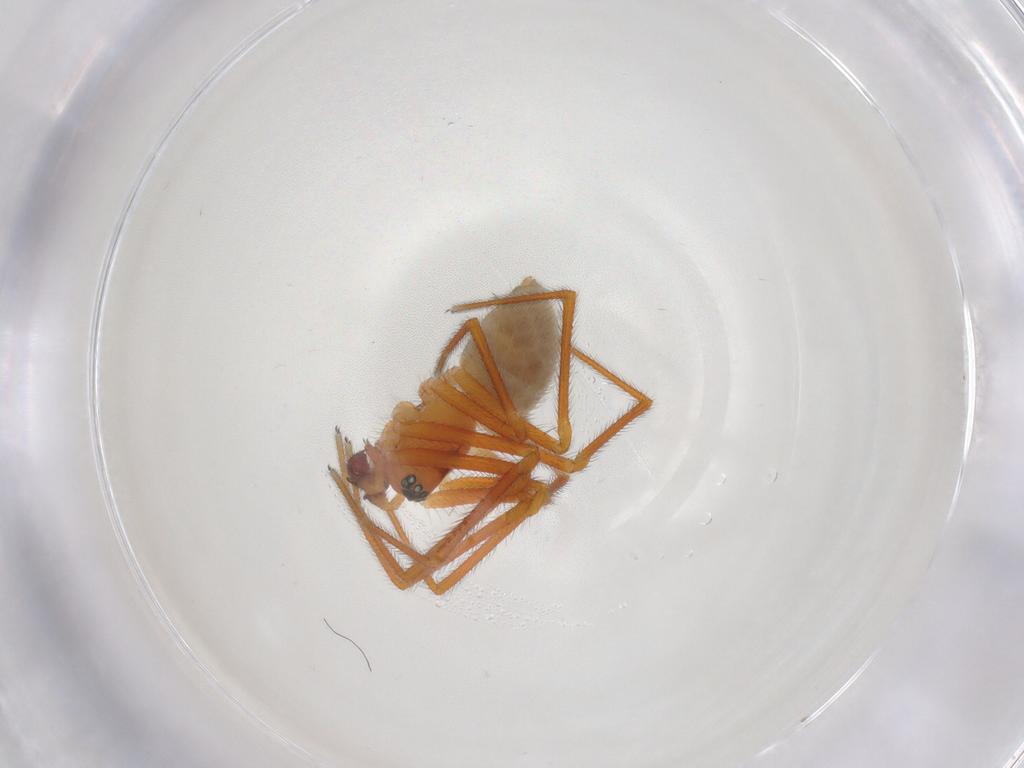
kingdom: Animalia
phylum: Arthropoda
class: Arachnida
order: Araneae
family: Linyphiidae
